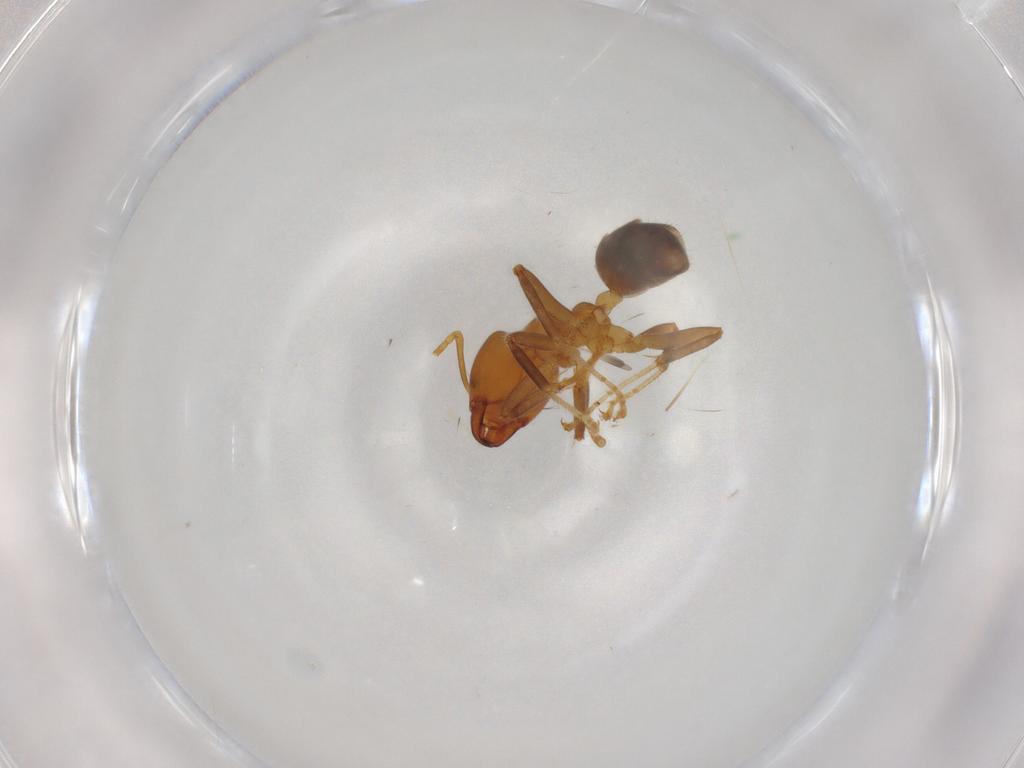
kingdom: Animalia
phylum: Arthropoda
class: Insecta
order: Hymenoptera
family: Formicidae
